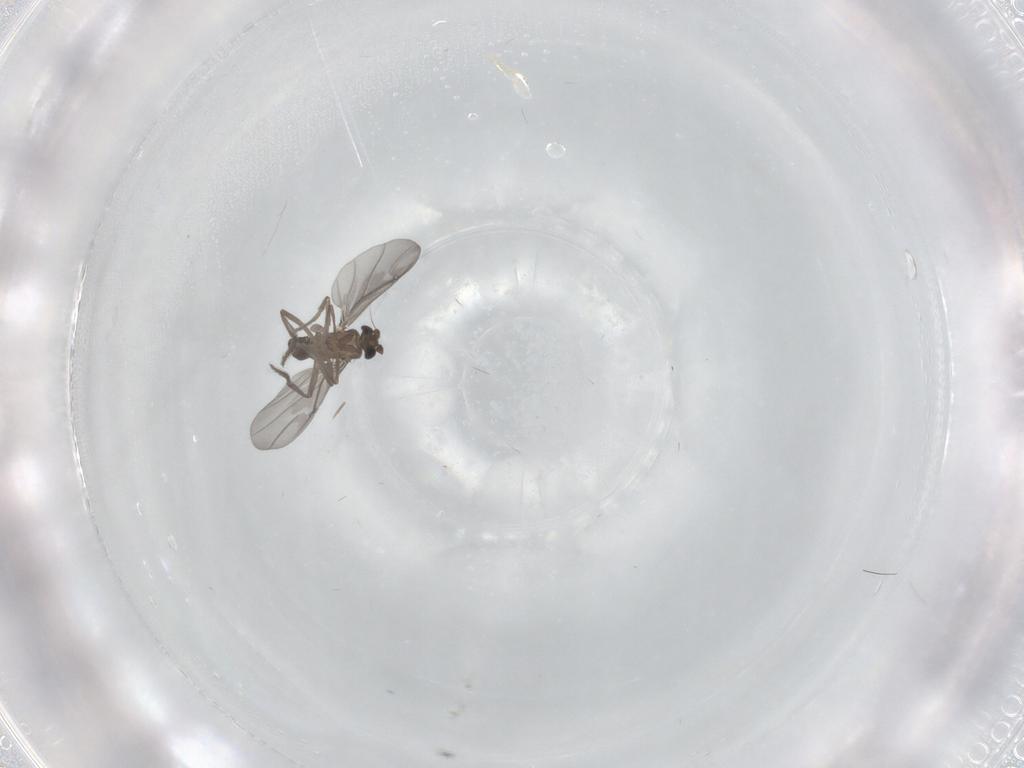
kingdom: Animalia
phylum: Arthropoda
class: Insecta
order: Diptera
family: Phoridae
